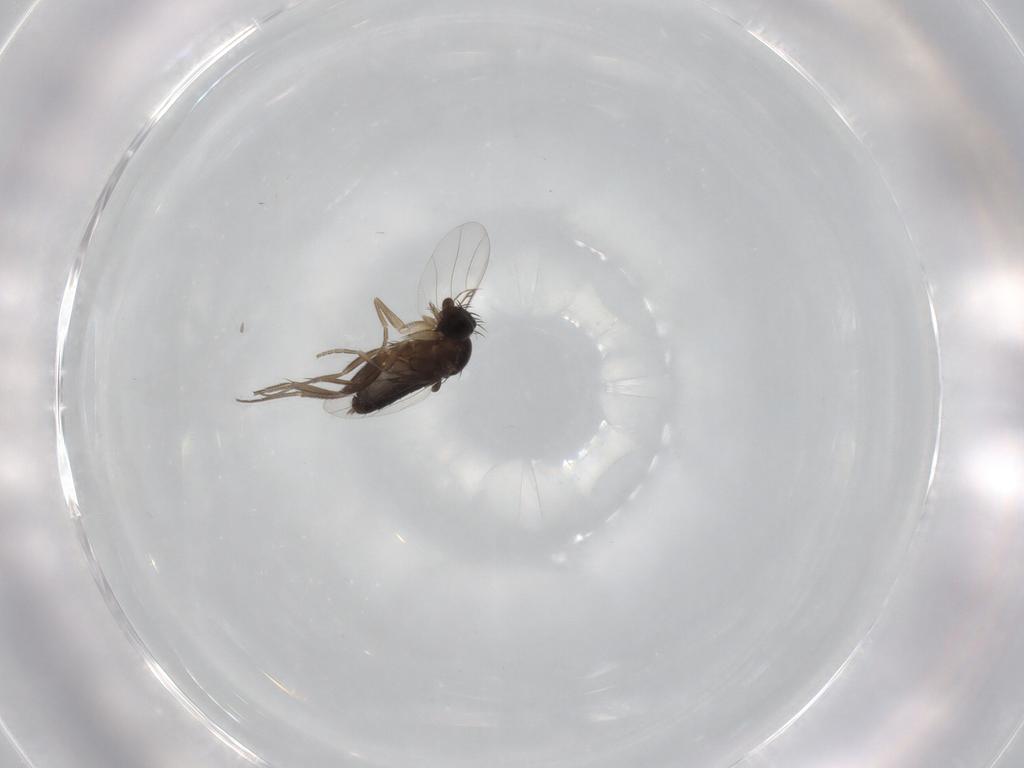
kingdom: Animalia
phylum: Arthropoda
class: Insecta
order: Diptera
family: Phoridae
